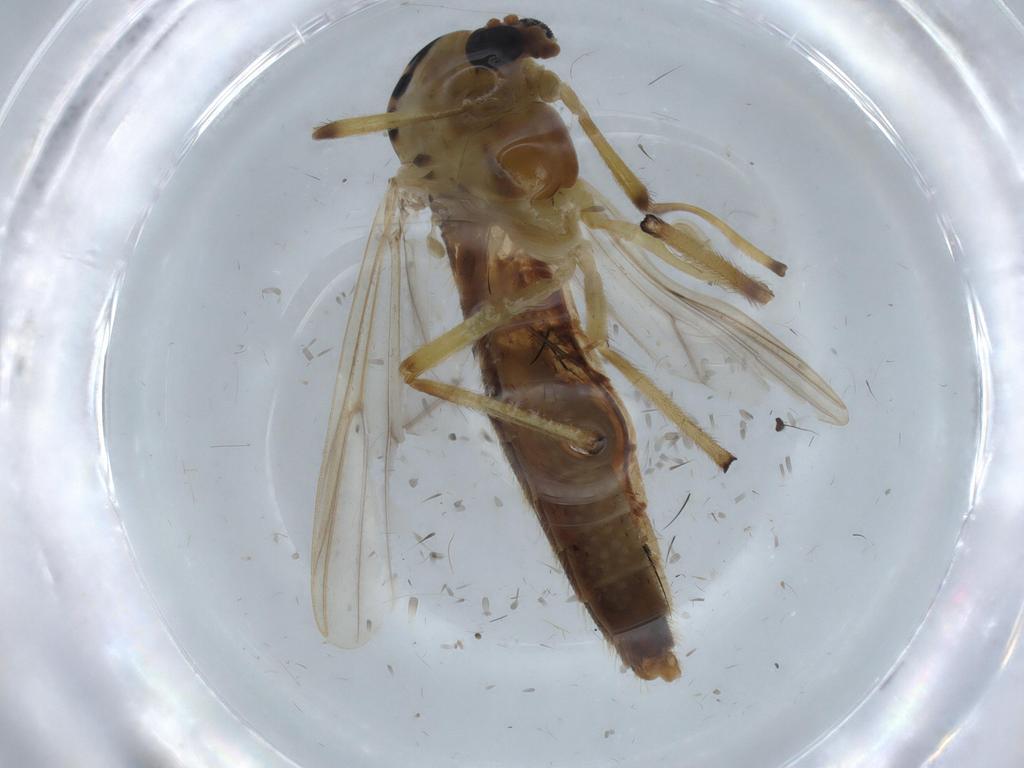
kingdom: Animalia
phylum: Arthropoda
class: Insecta
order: Diptera
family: Chironomidae
